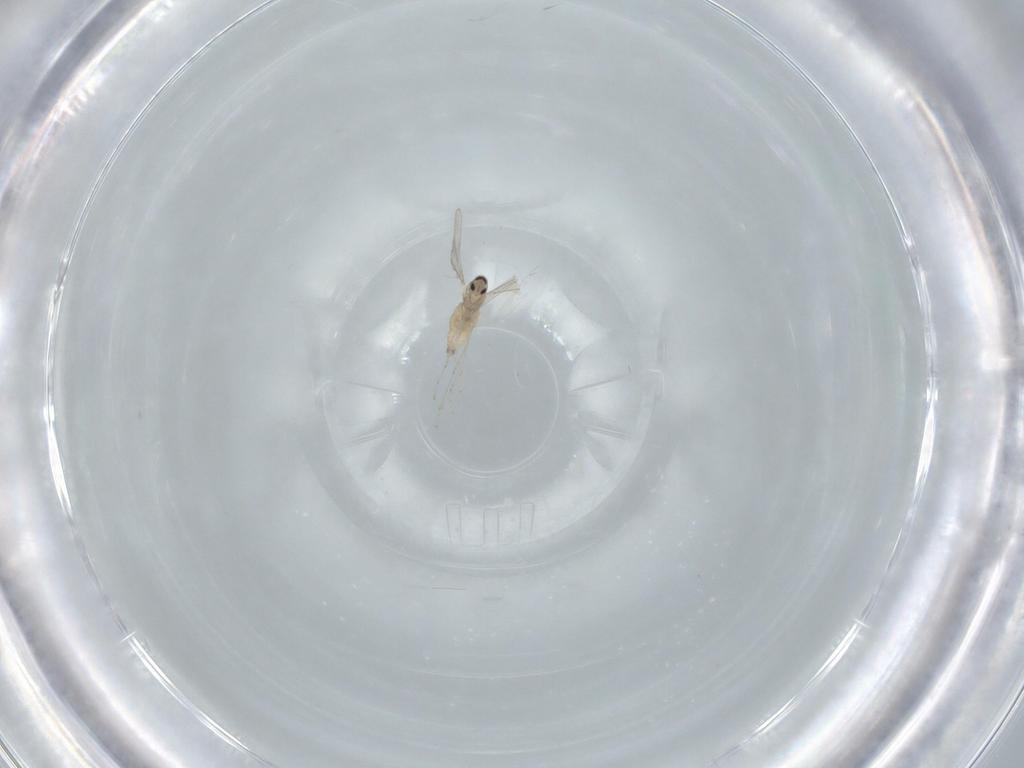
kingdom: Animalia
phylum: Arthropoda
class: Insecta
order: Diptera
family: Cecidomyiidae
